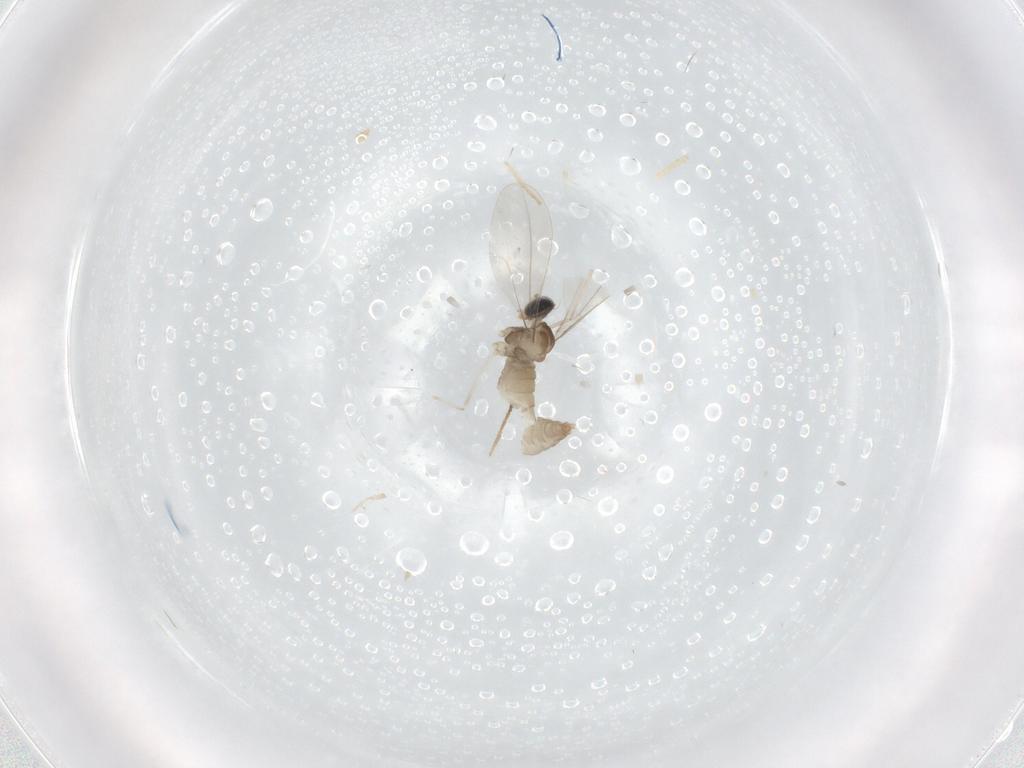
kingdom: Animalia
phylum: Arthropoda
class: Insecta
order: Diptera
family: Chironomidae
